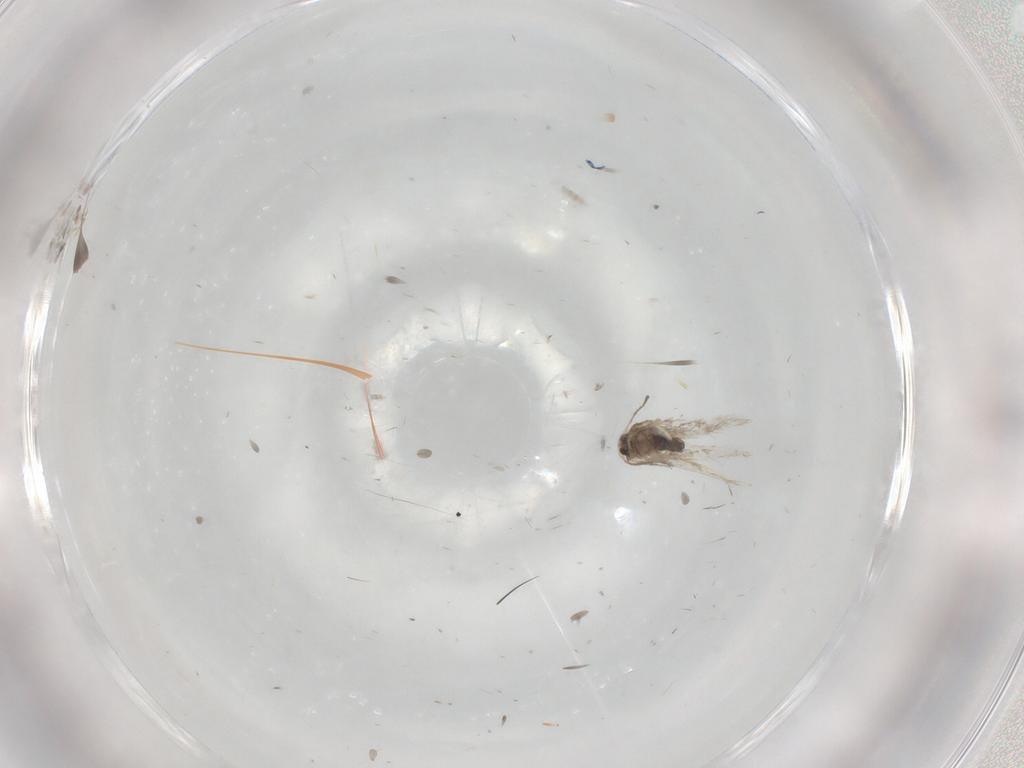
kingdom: Animalia
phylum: Arthropoda
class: Insecta
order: Lepidoptera
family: Nepticulidae
